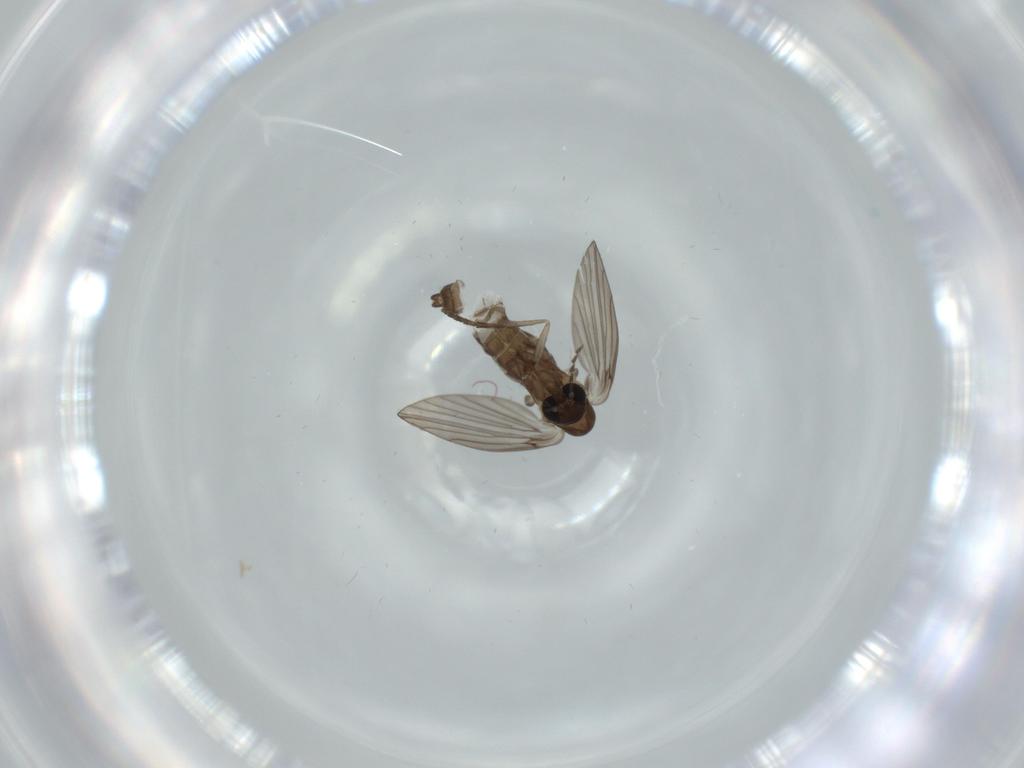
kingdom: Animalia
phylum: Arthropoda
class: Insecta
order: Diptera
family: Psychodidae
